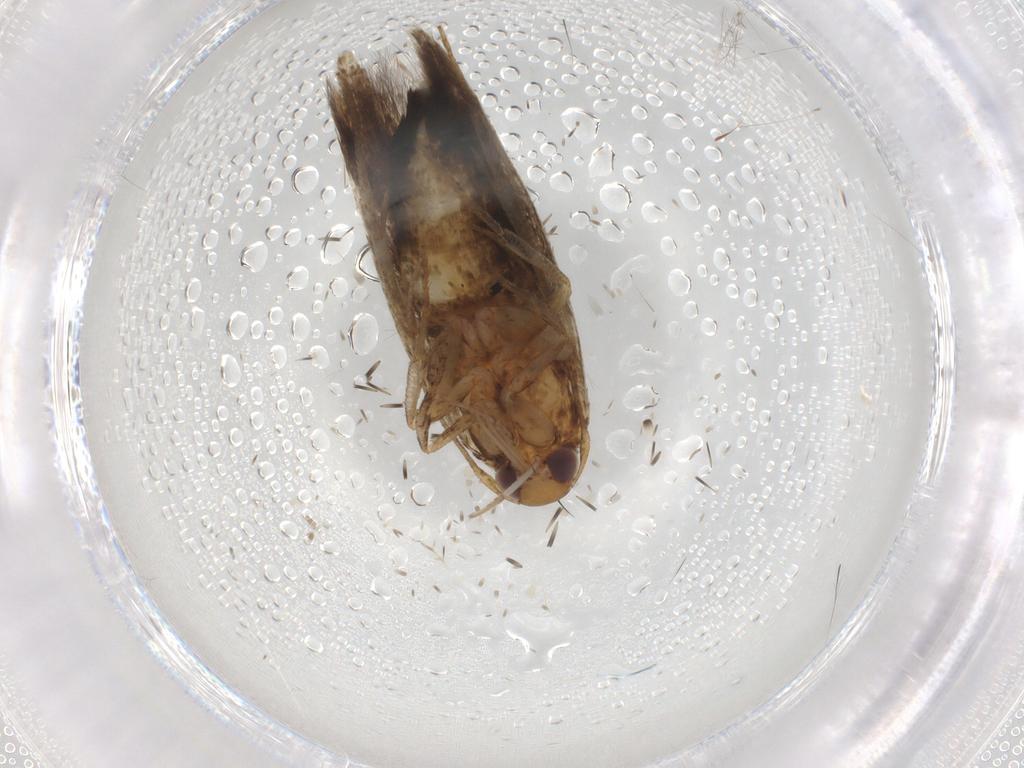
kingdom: Animalia
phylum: Arthropoda
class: Insecta
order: Lepidoptera
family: Cosmopterigidae
